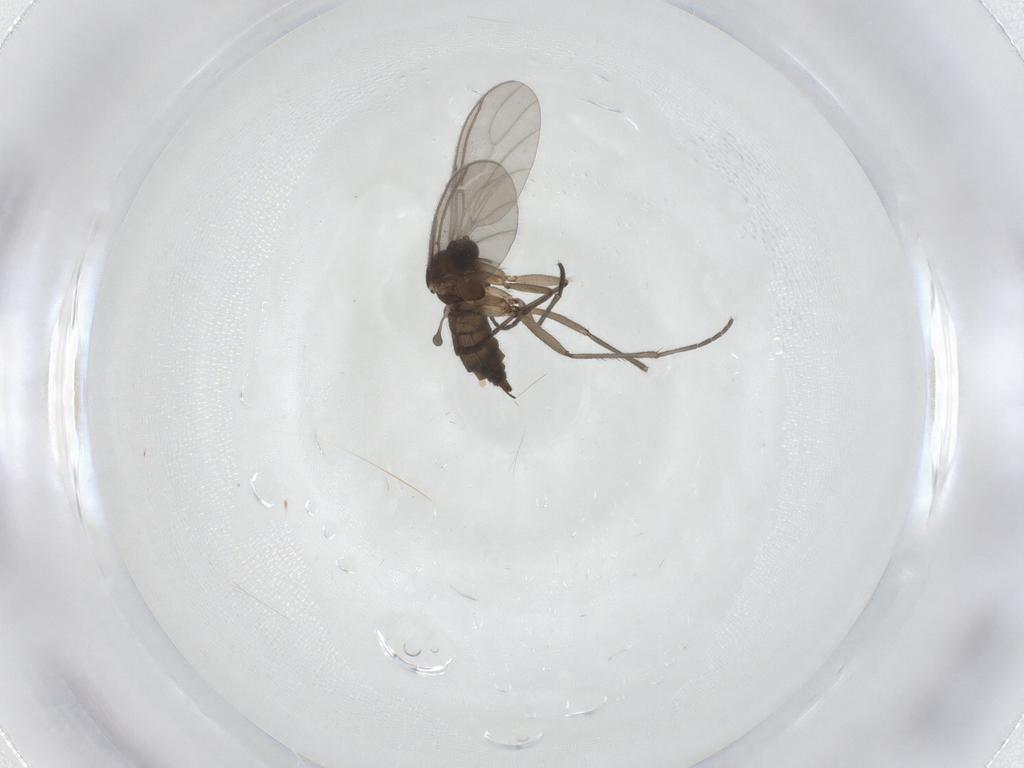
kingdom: Animalia
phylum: Arthropoda
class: Insecta
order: Diptera
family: Sciaridae
